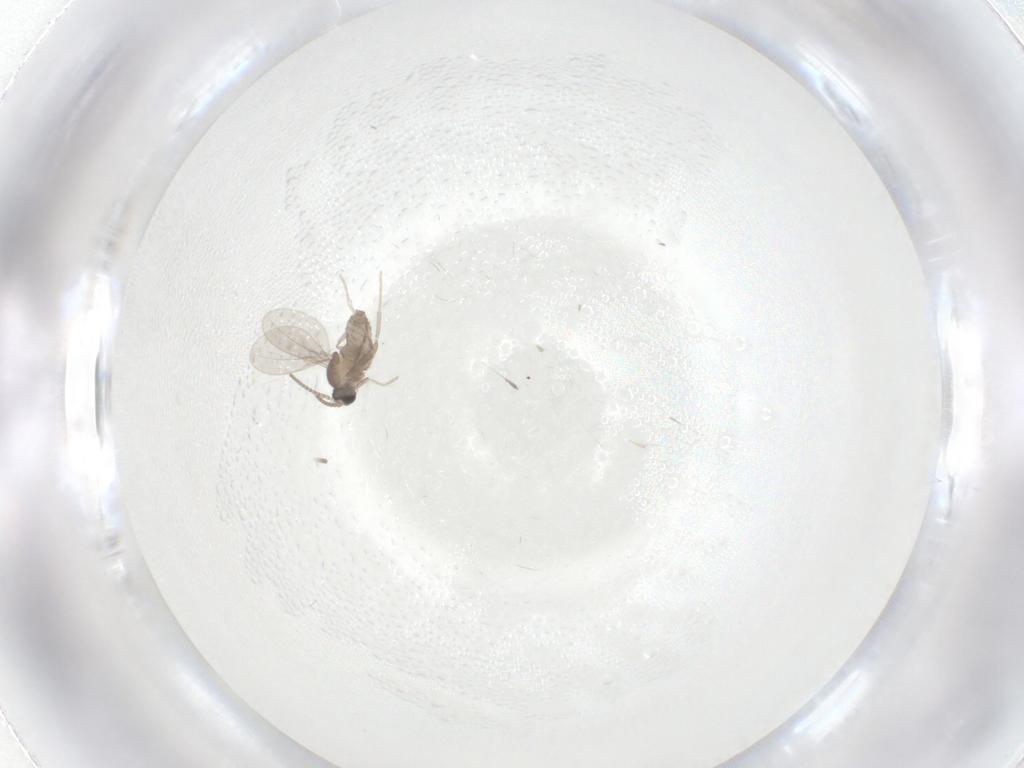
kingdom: Animalia
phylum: Arthropoda
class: Insecta
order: Diptera
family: Cecidomyiidae
